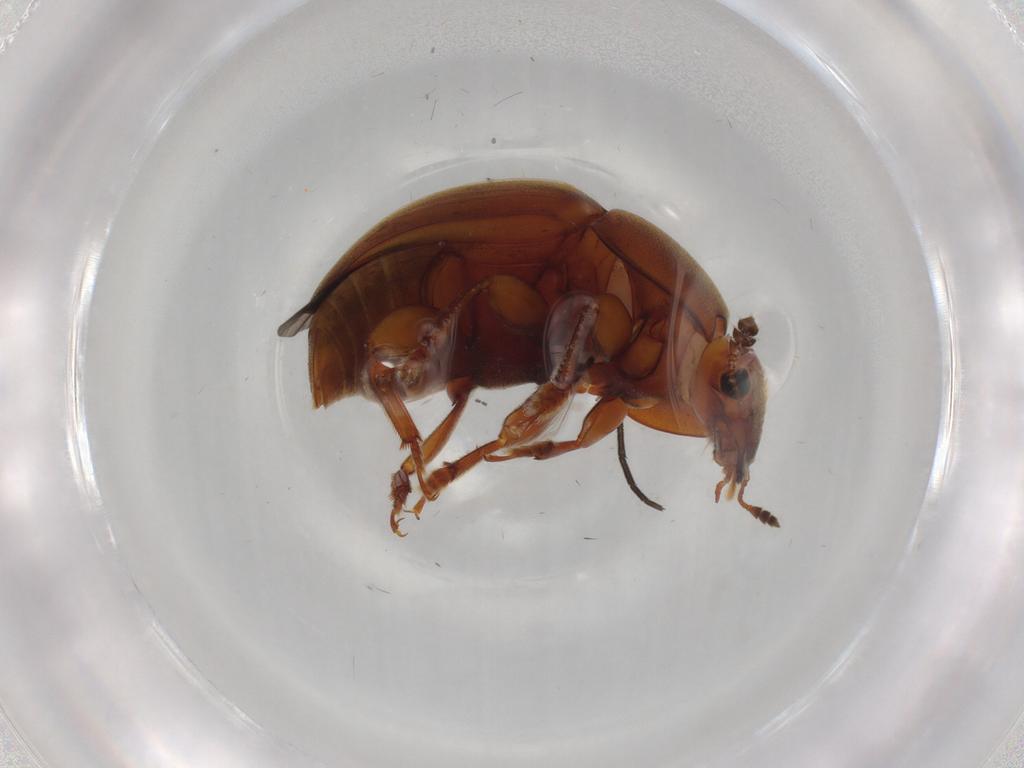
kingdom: Animalia
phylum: Arthropoda
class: Insecta
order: Coleoptera
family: Nitidulidae
